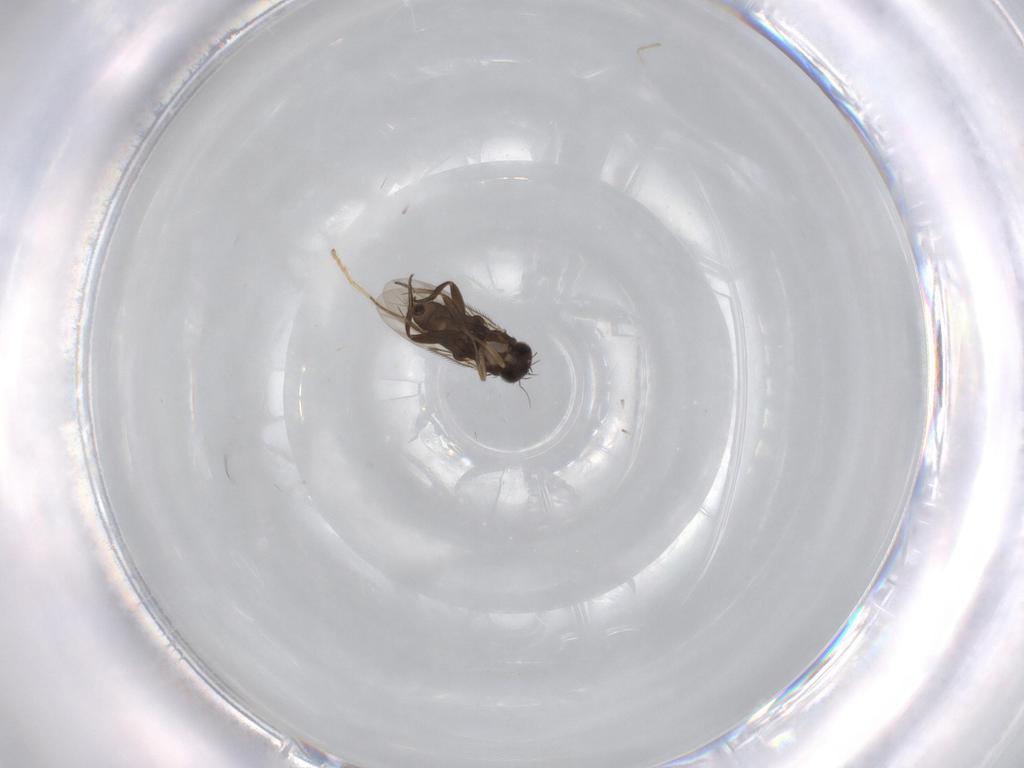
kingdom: Animalia
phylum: Arthropoda
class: Insecta
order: Diptera
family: Phoridae
